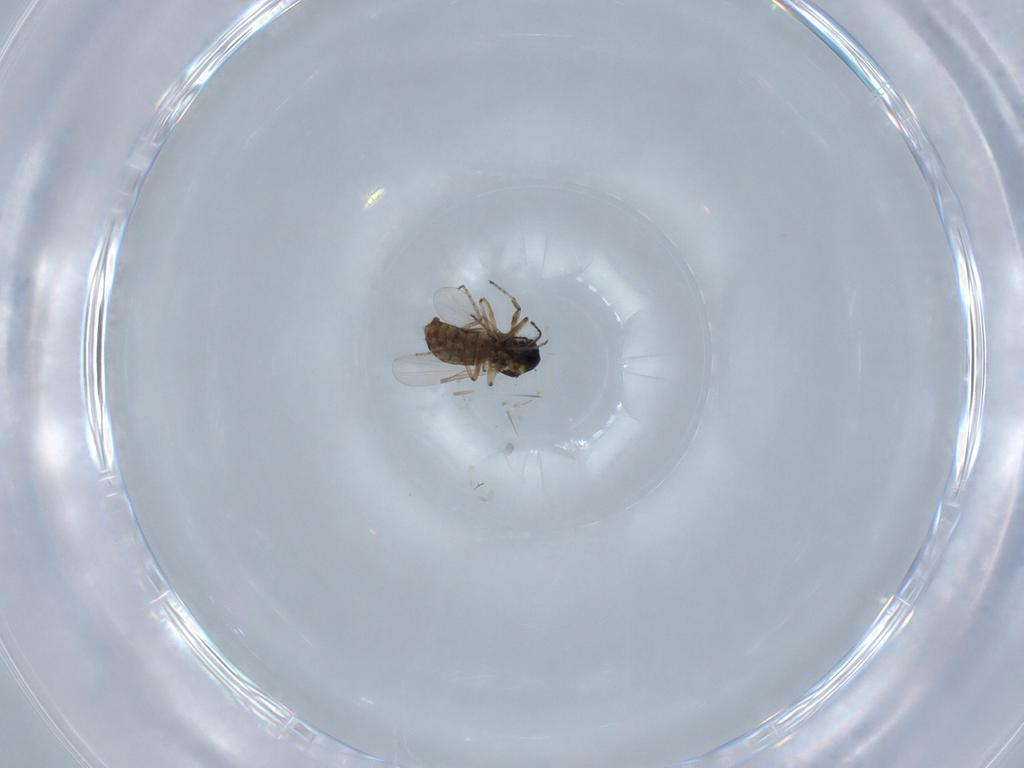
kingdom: Animalia
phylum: Arthropoda
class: Insecta
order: Diptera
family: Ceratopogonidae
